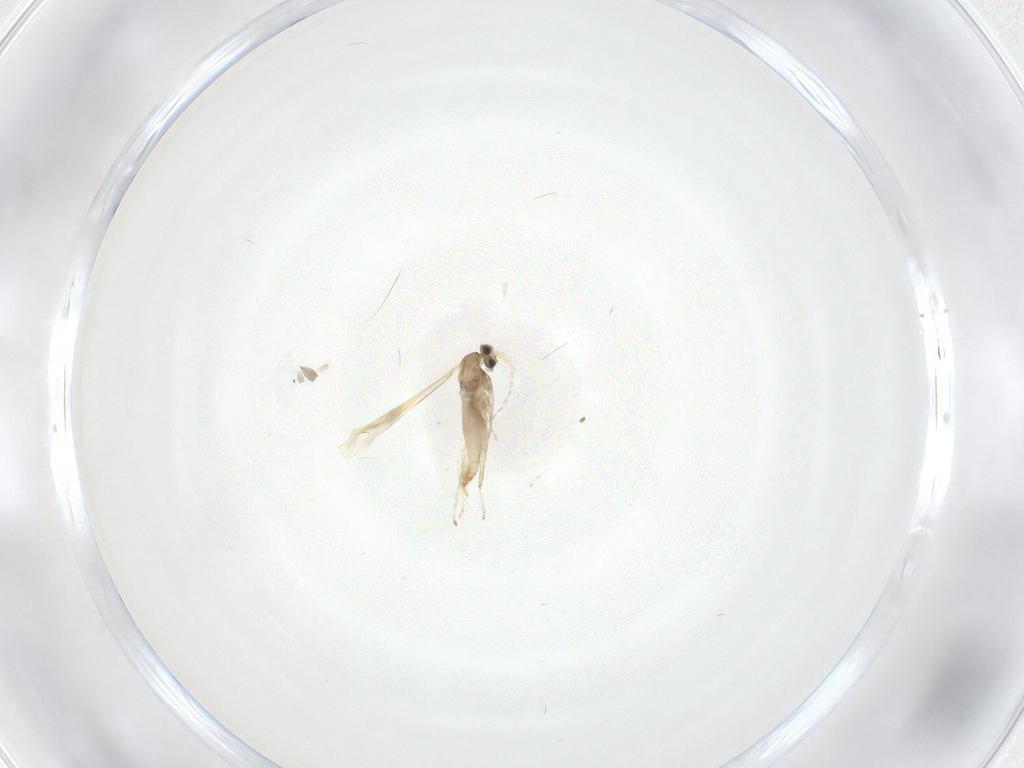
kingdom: Animalia
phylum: Arthropoda
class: Insecta
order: Diptera
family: Cecidomyiidae
